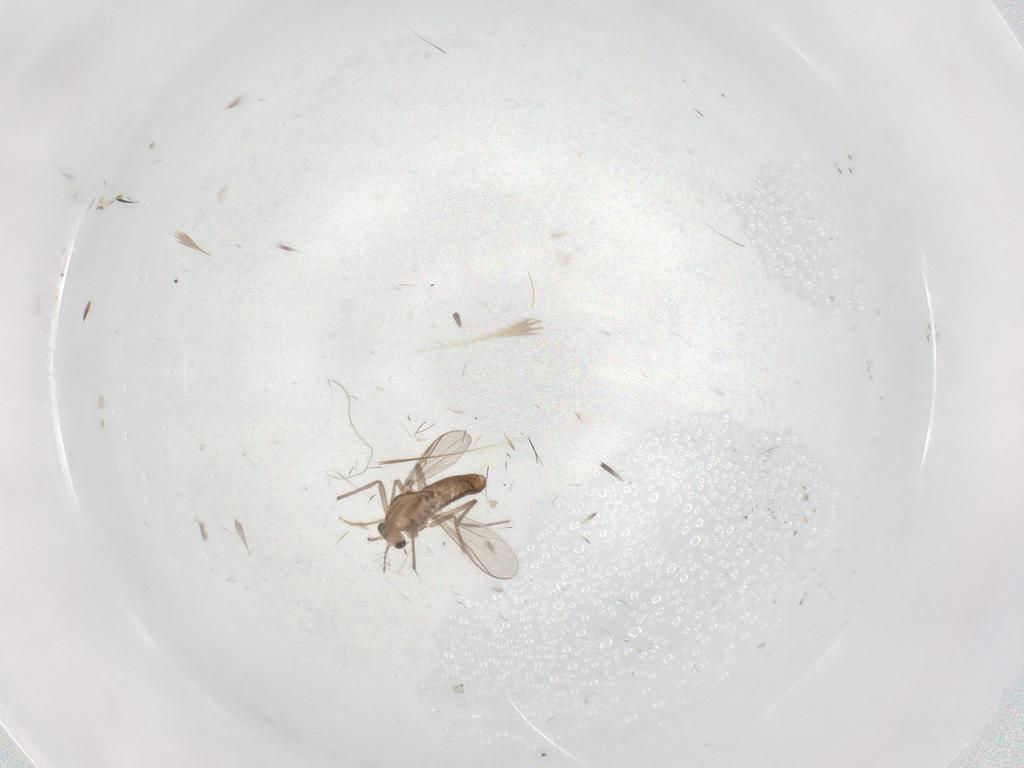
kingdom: Animalia
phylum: Arthropoda
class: Insecta
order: Diptera
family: Chironomidae
